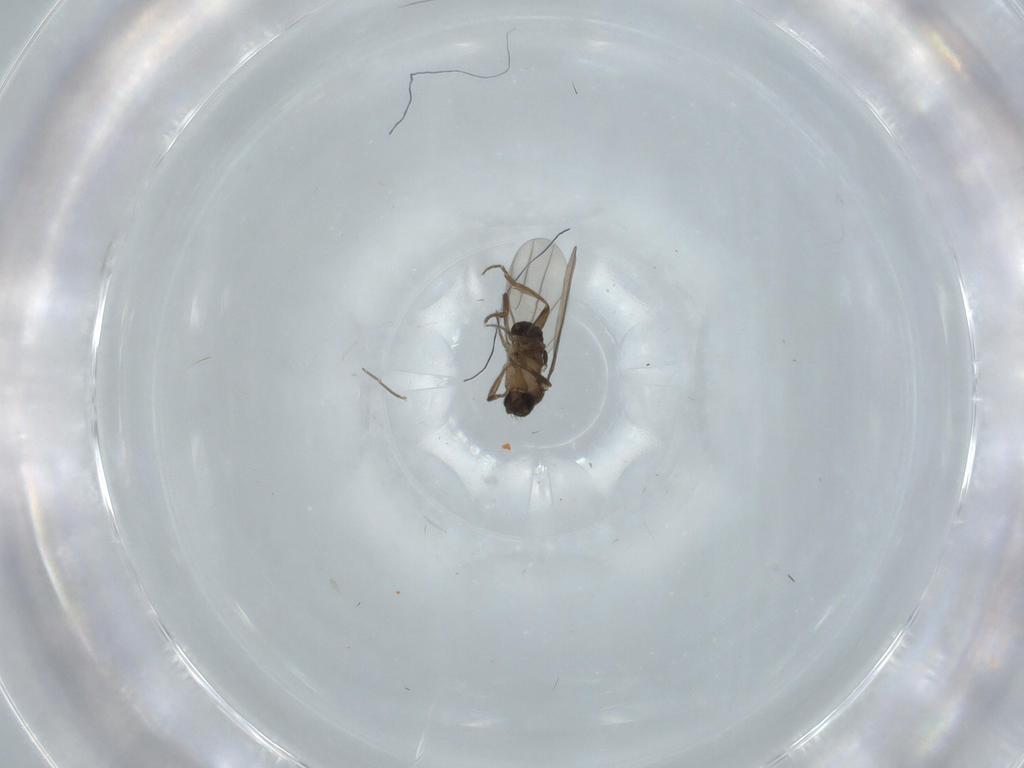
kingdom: Animalia
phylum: Arthropoda
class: Insecta
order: Diptera
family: Phoridae
